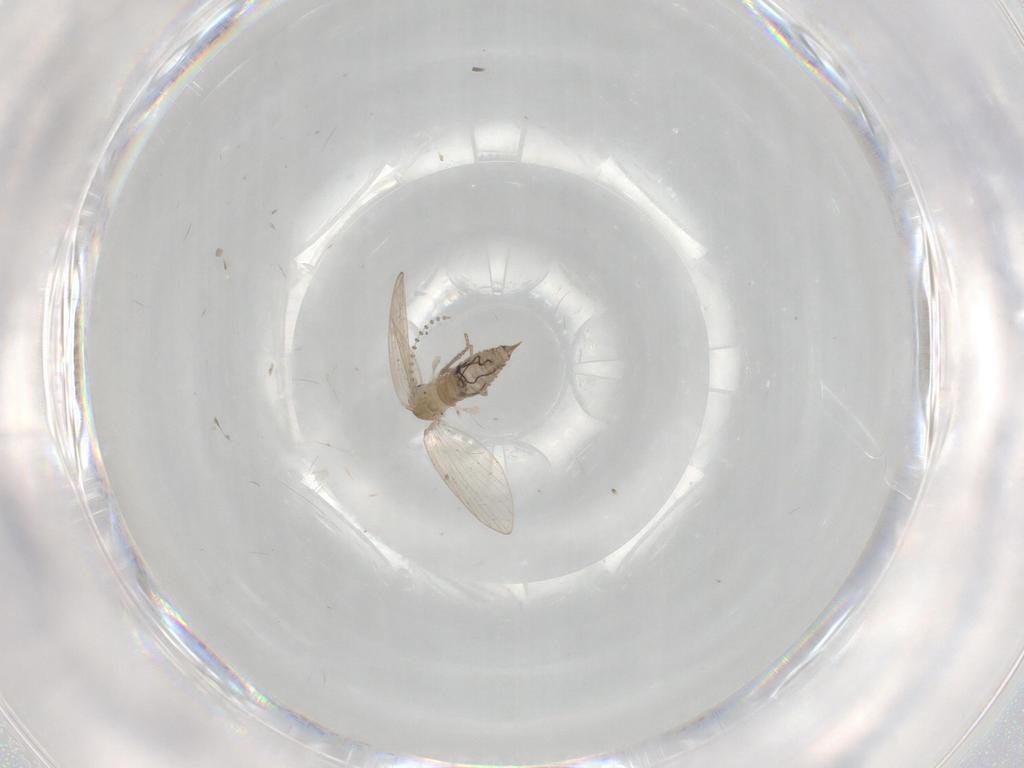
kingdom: Animalia
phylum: Arthropoda
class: Insecta
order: Diptera
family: Psychodidae
